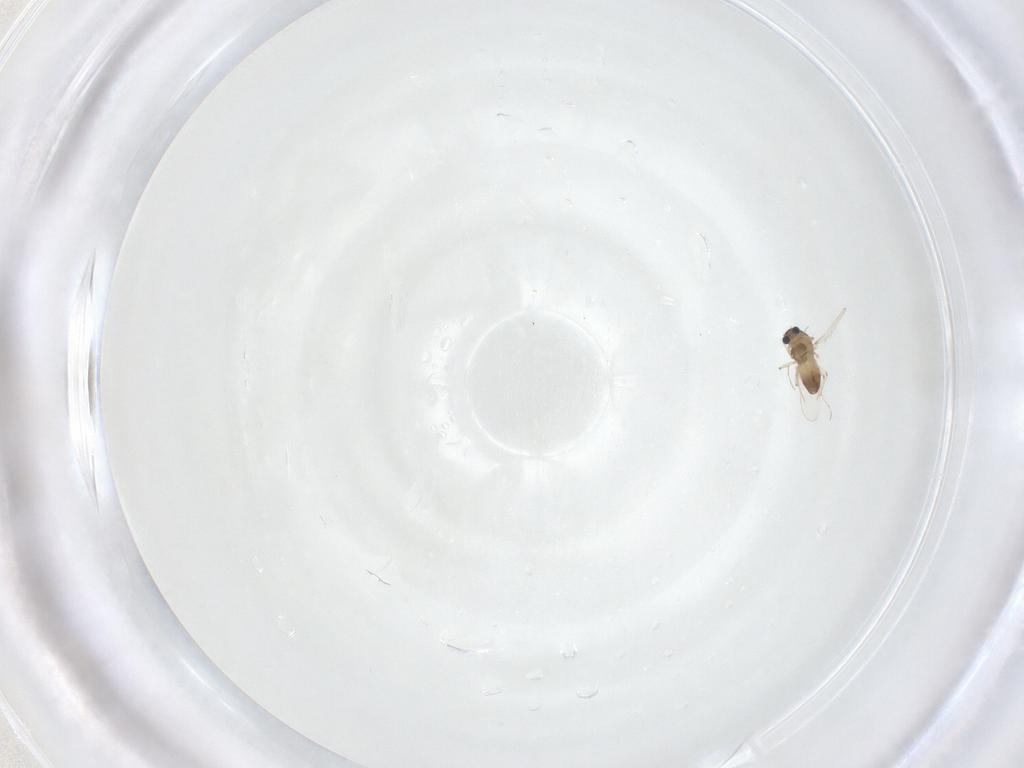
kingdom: Animalia
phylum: Arthropoda
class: Insecta
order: Diptera
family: Chironomidae
